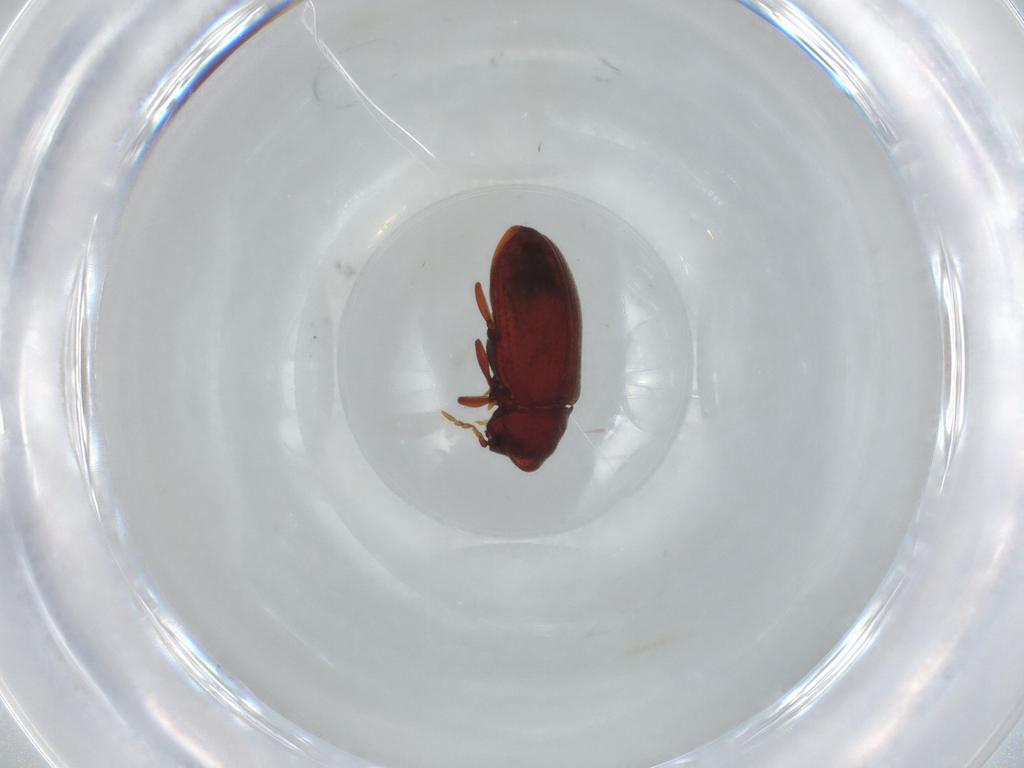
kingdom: Animalia
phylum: Arthropoda
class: Insecta
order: Coleoptera
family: Ptinidae
